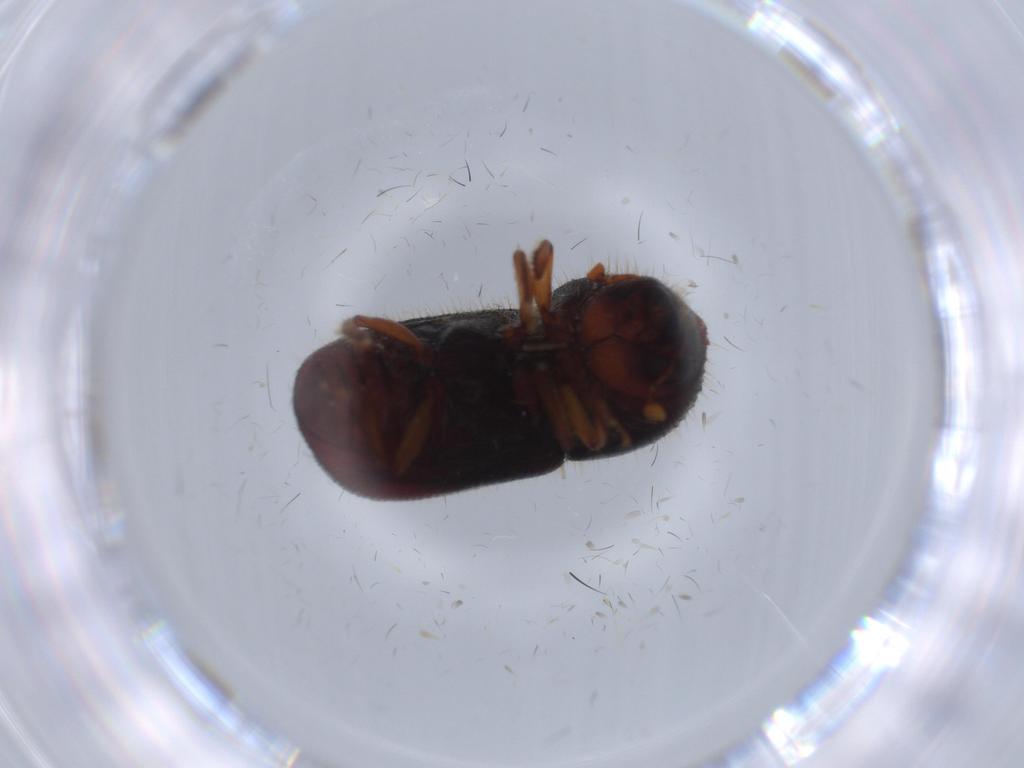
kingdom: Animalia
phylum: Arthropoda
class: Insecta
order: Coleoptera
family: Curculionidae
